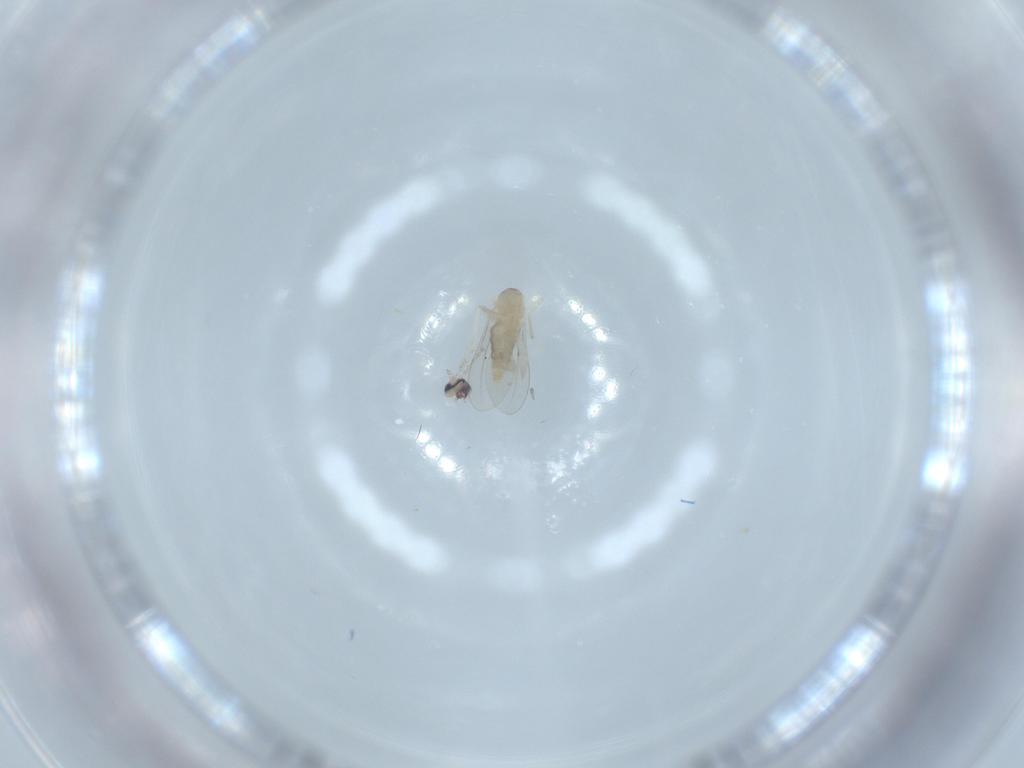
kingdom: Animalia
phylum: Arthropoda
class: Insecta
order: Diptera
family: Cecidomyiidae
